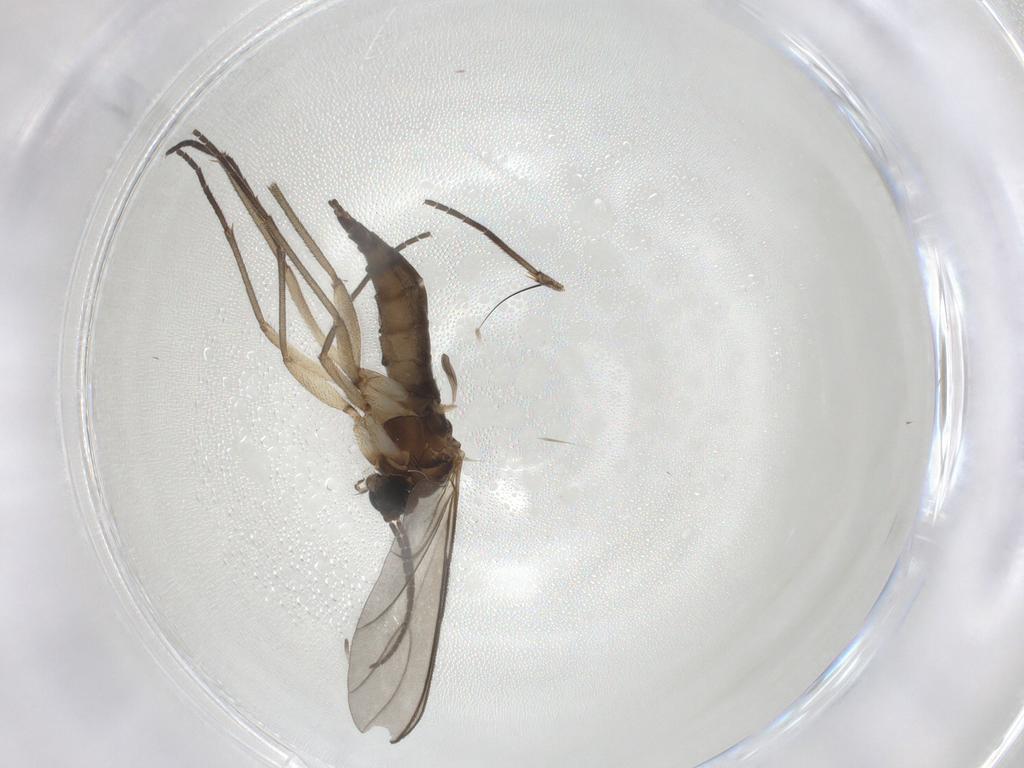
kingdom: Animalia
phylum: Arthropoda
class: Insecta
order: Diptera
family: Sciaridae
